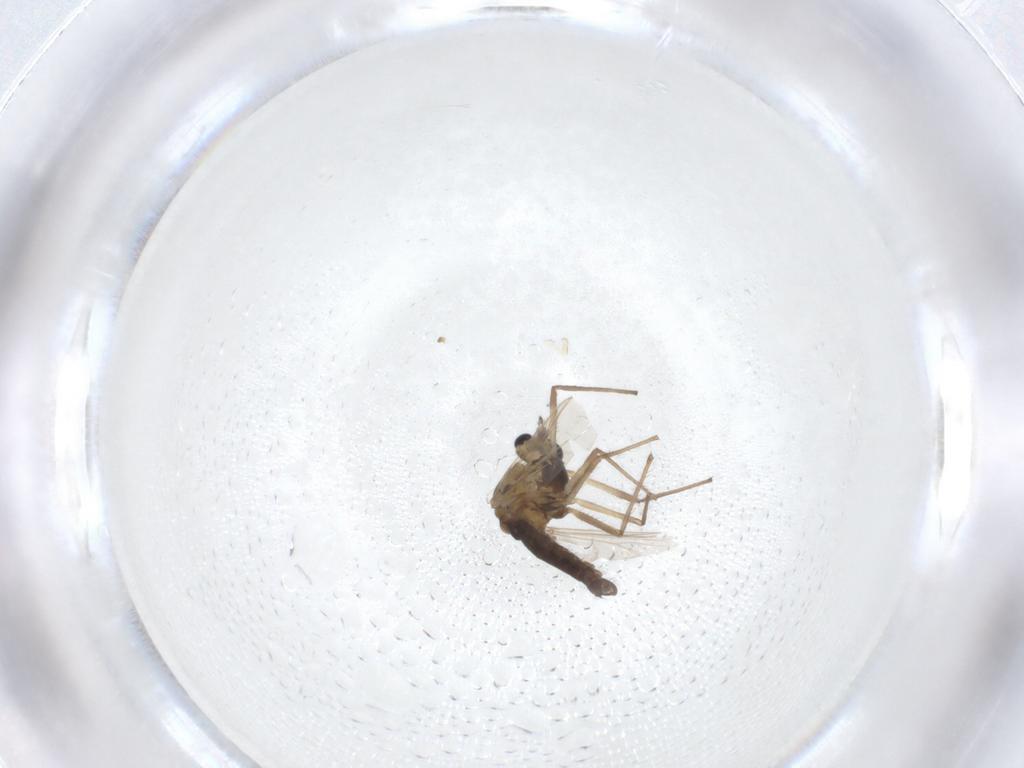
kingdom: Animalia
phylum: Arthropoda
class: Insecta
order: Diptera
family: Chironomidae
